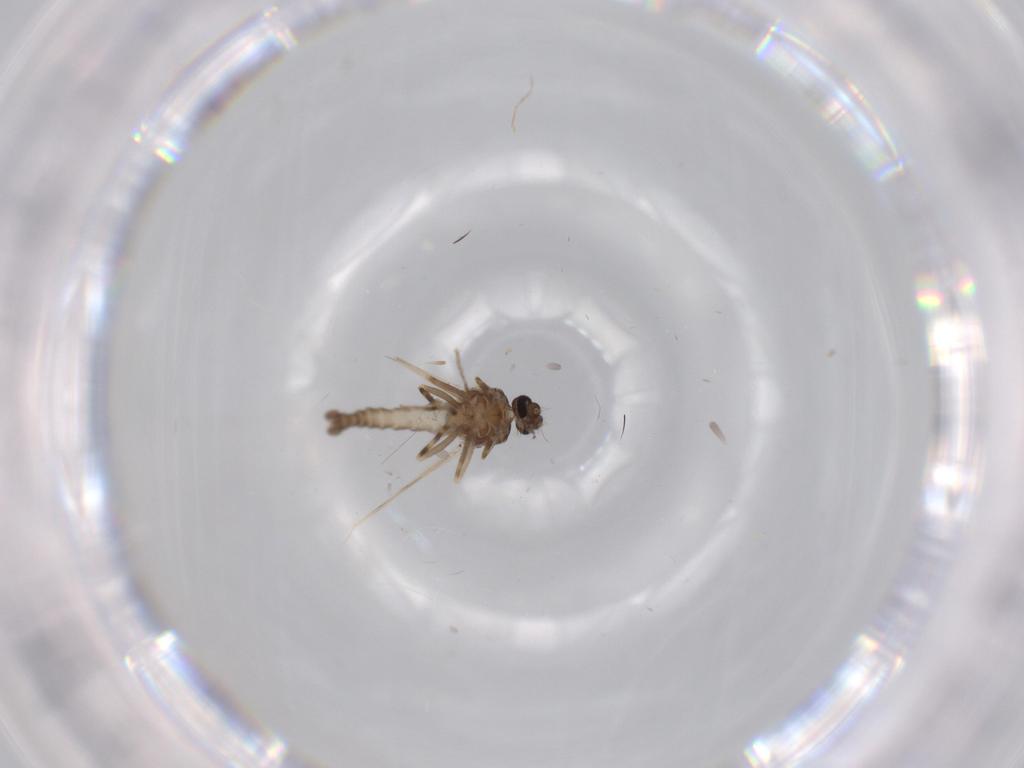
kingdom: Animalia
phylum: Arthropoda
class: Insecta
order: Diptera
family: Ceratopogonidae
